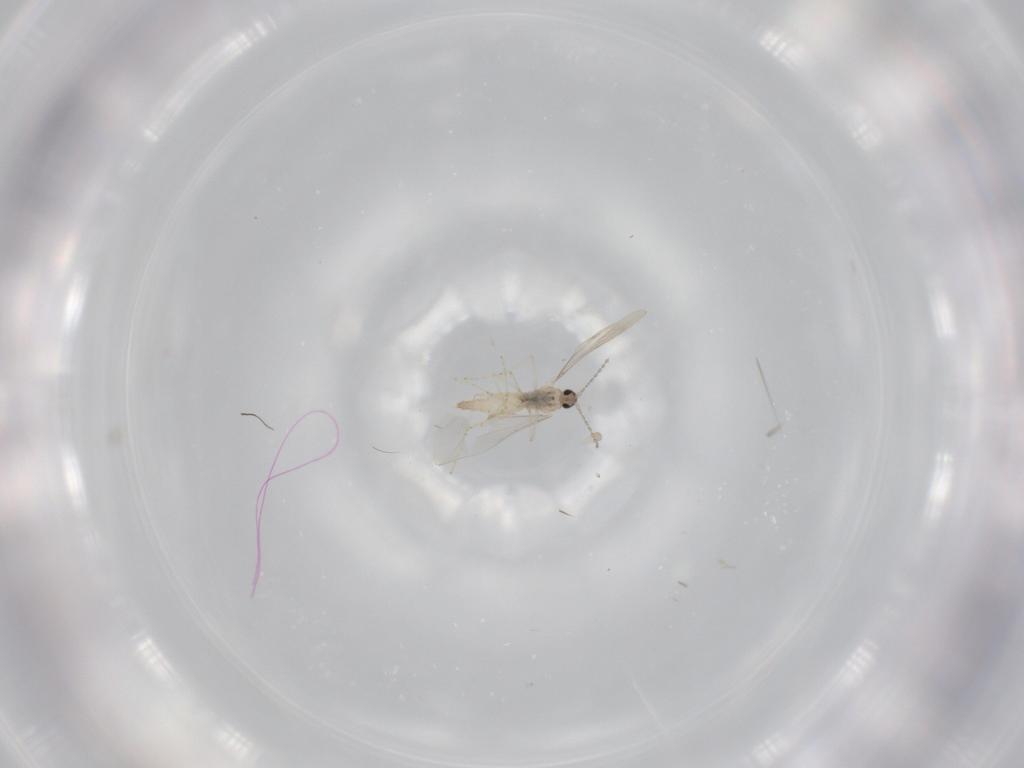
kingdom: Animalia
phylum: Arthropoda
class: Insecta
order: Diptera
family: Cecidomyiidae
